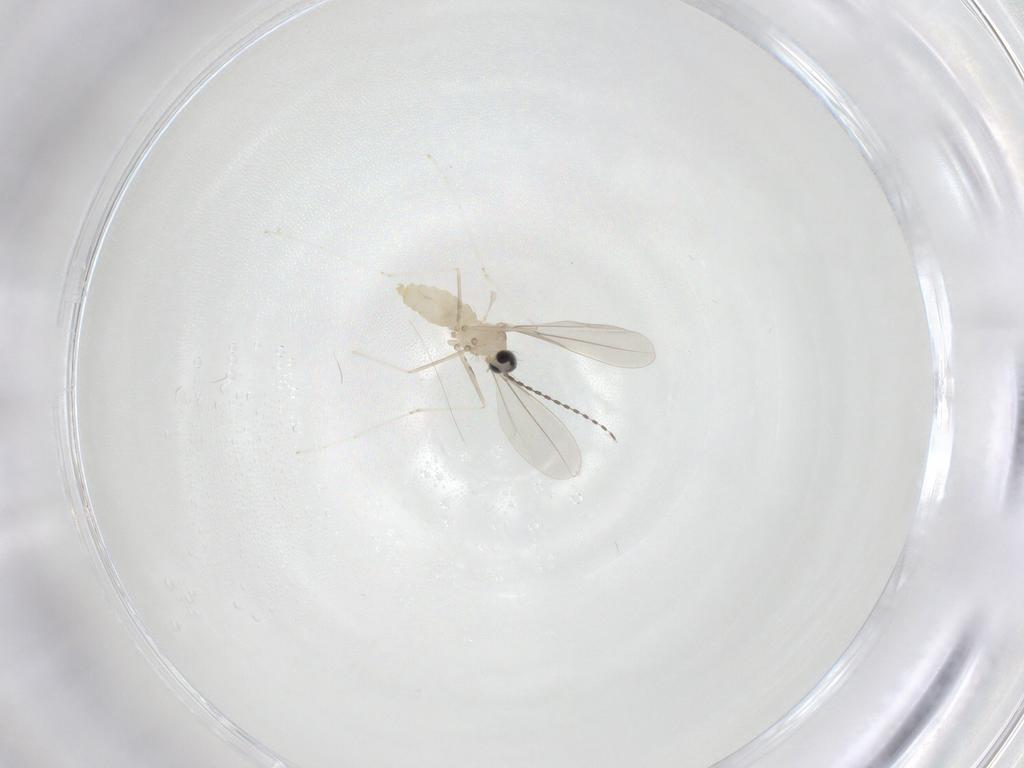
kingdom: Animalia
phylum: Arthropoda
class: Insecta
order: Diptera
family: Cecidomyiidae
